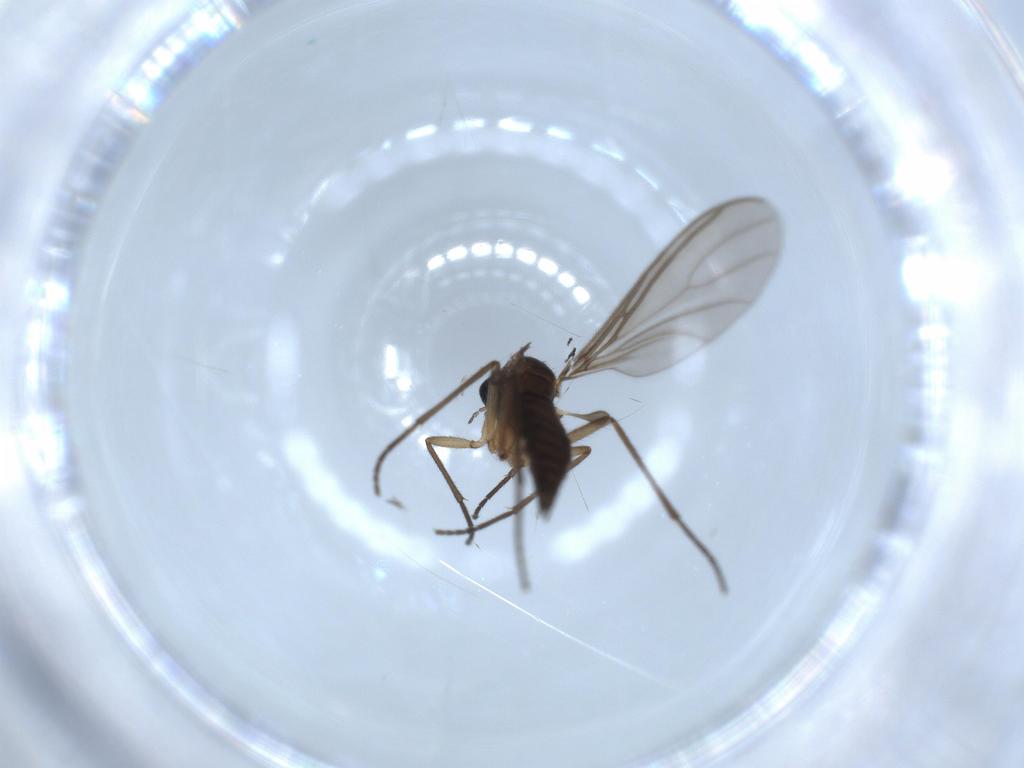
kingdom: Animalia
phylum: Arthropoda
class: Insecta
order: Diptera
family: Sciaridae
